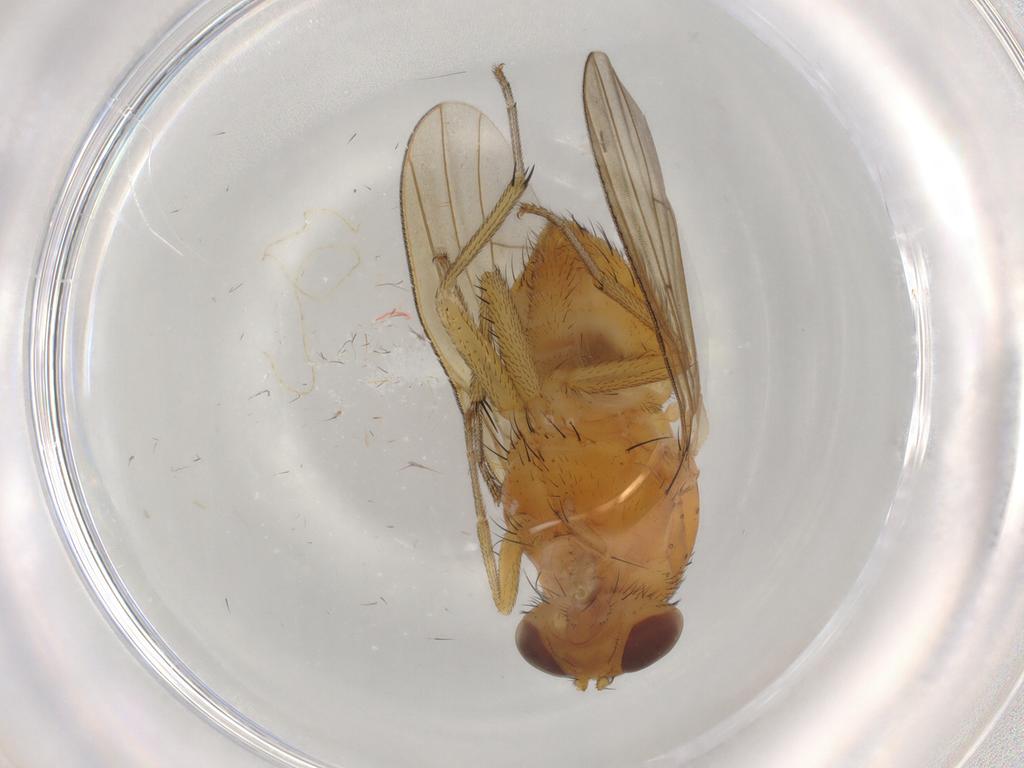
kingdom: Animalia
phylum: Arthropoda
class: Insecta
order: Diptera
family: Lauxaniidae
